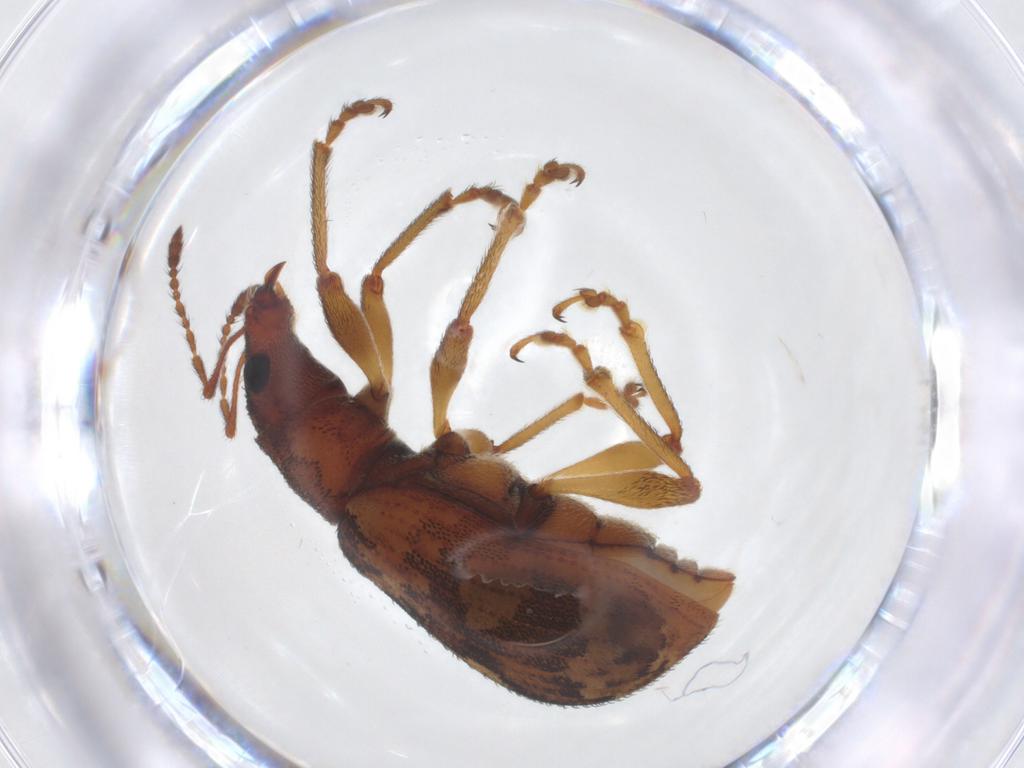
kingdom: Animalia
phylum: Arthropoda
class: Insecta
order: Coleoptera
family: Curculionidae
